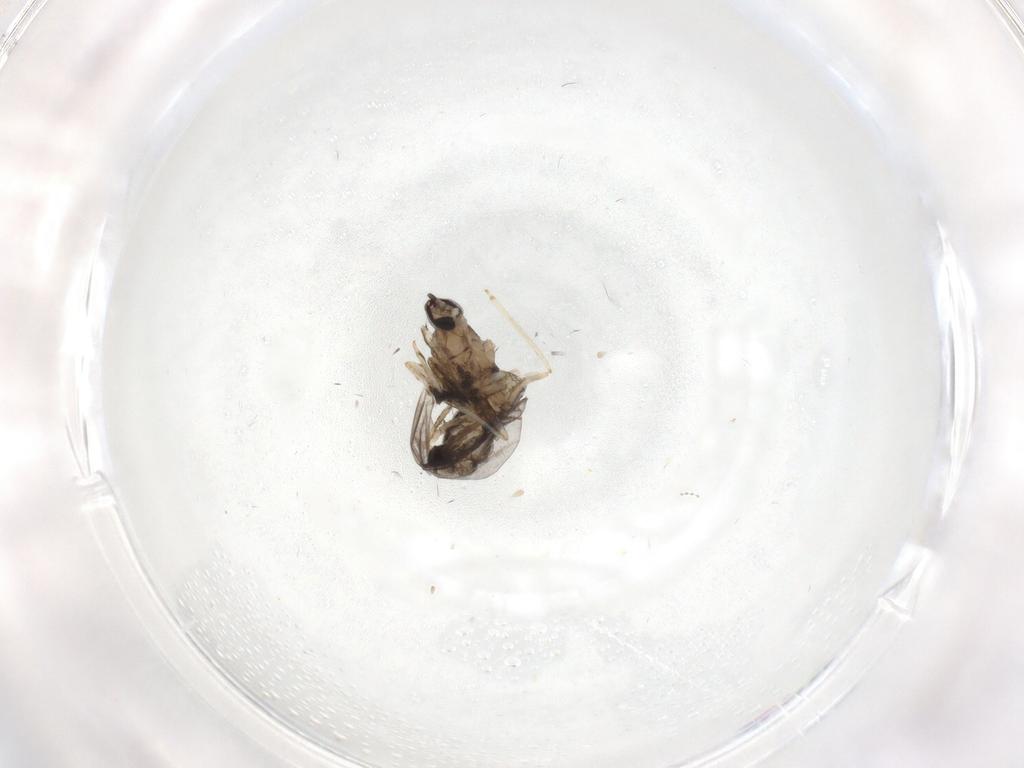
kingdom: Animalia
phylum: Arthropoda
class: Insecta
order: Diptera
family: Cecidomyiidae
